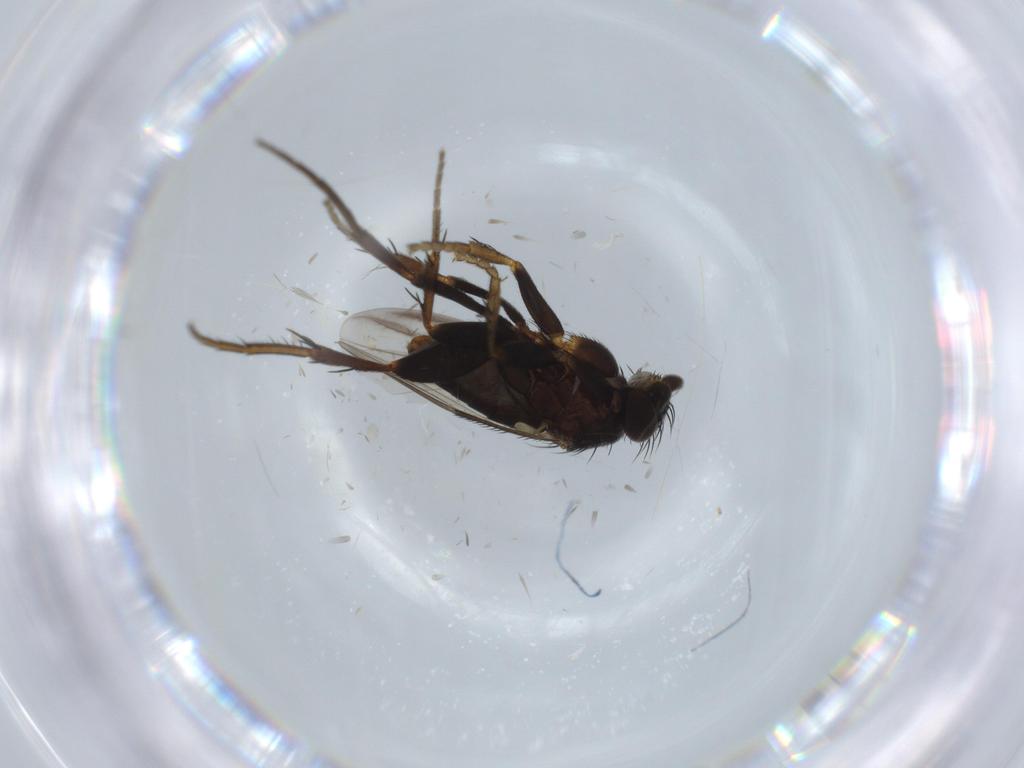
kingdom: Animalia
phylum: Arthropoda
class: Insecta
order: Diptera
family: Phoridae
